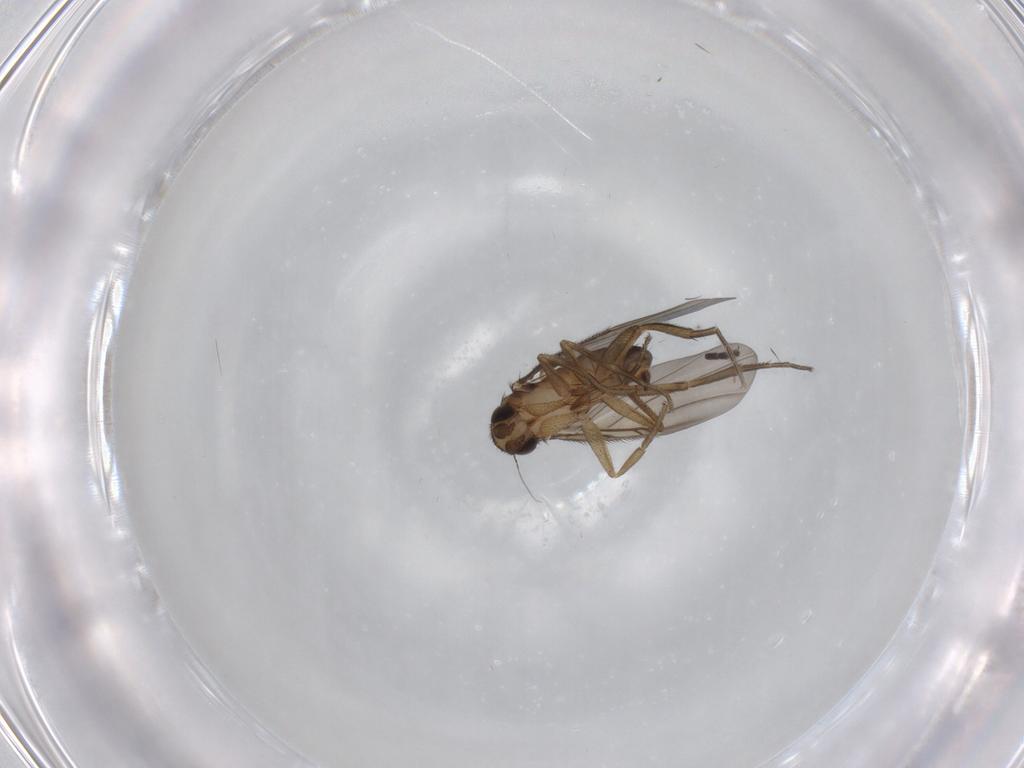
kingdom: Animalia
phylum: Arthropoda
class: Insecta
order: Diptera
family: Phoridae
